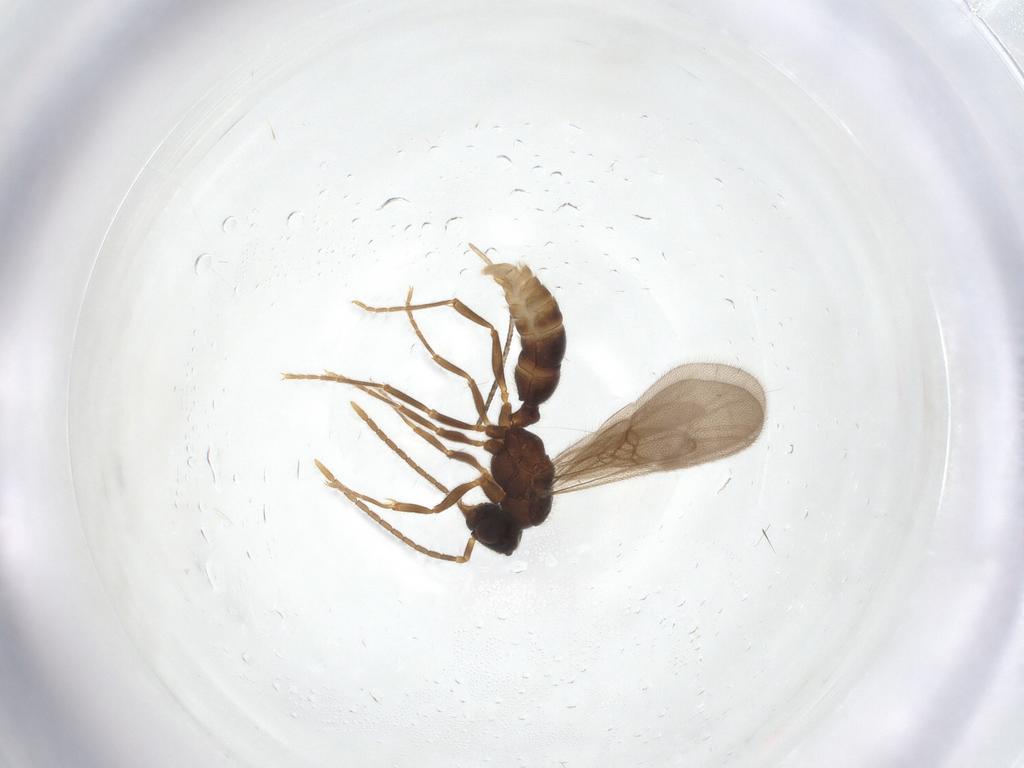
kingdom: Animalia
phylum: Arthropoda
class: Insecta
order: Hymenoptera
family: Formicidae
